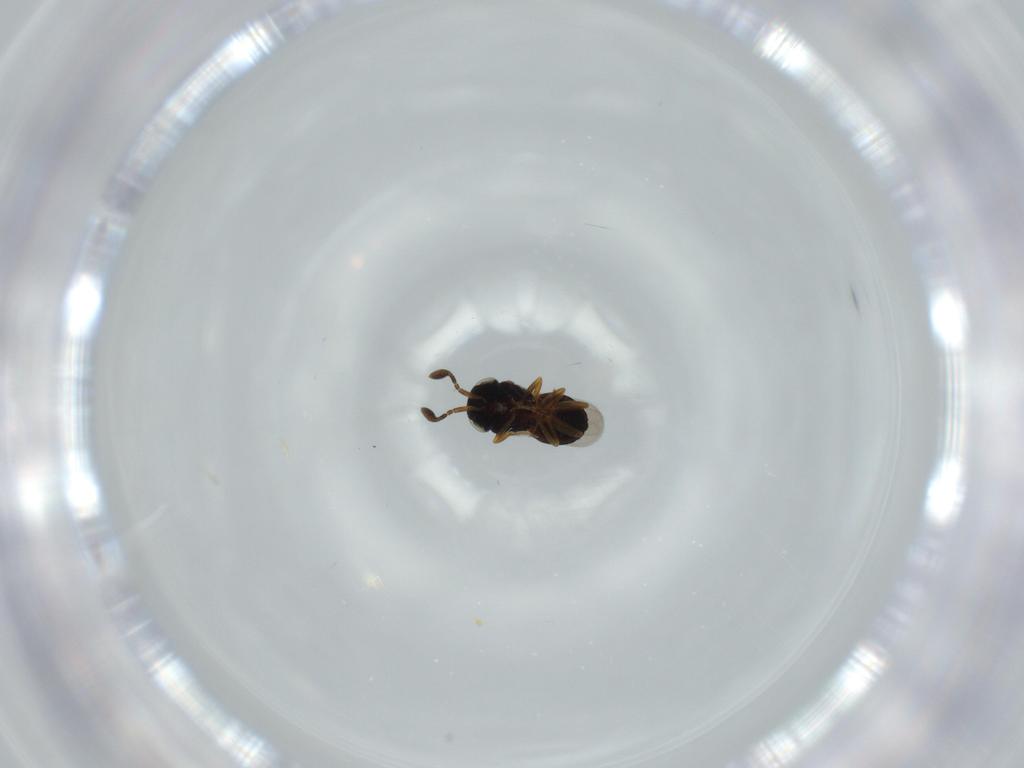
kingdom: Animalia
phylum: Arthropoda
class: Insecta
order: Hymenoptera
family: Scelionidae
